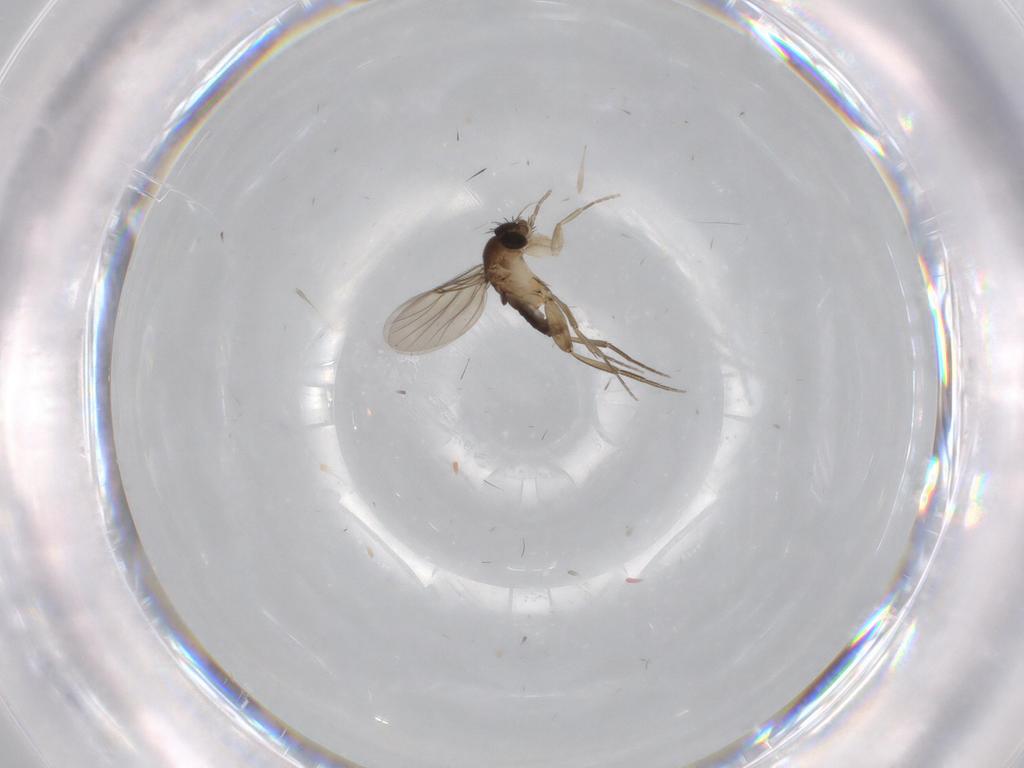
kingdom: Animalia
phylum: Arthropoda
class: Insecta
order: Diptera
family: Phoridae
